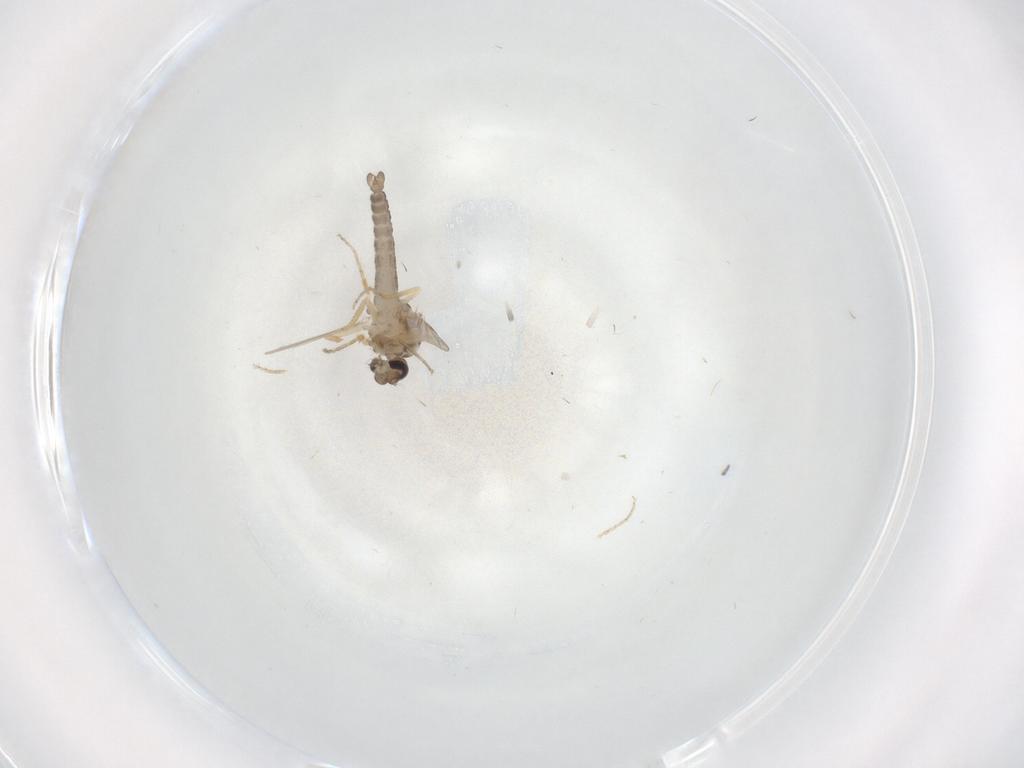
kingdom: Animalia
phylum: Arthropoda
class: Insecta
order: Diptera
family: Ceratopogonidae
